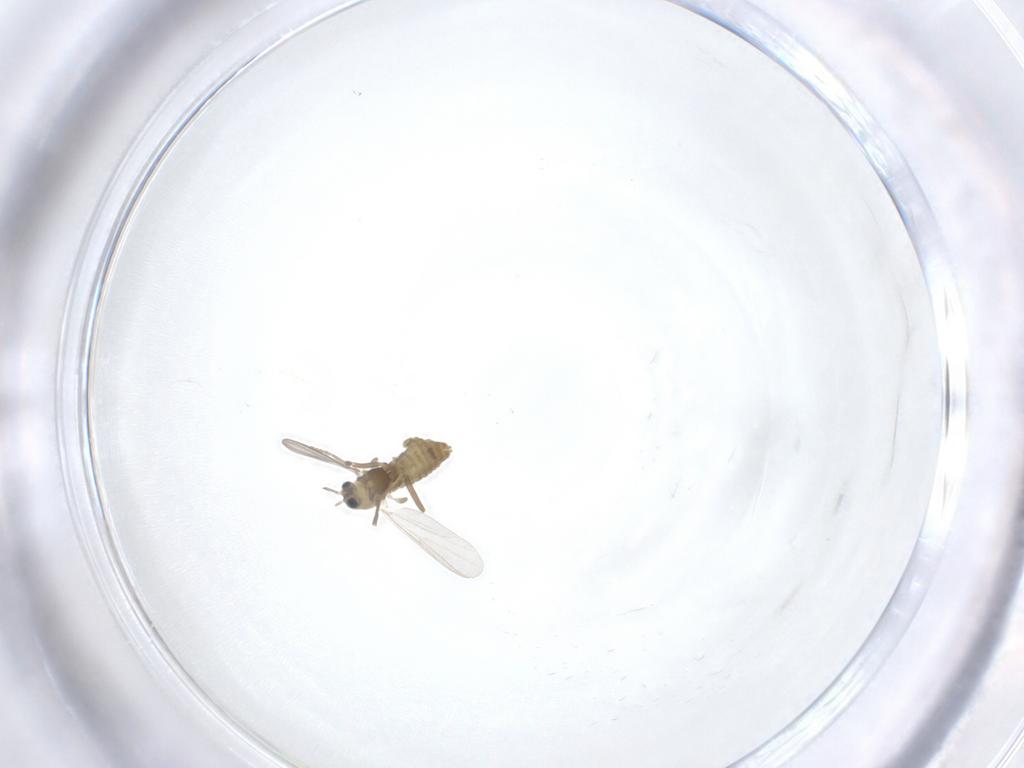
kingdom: Animalia
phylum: Arthropoda
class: Insecta
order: Diptera
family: Chironomidae
